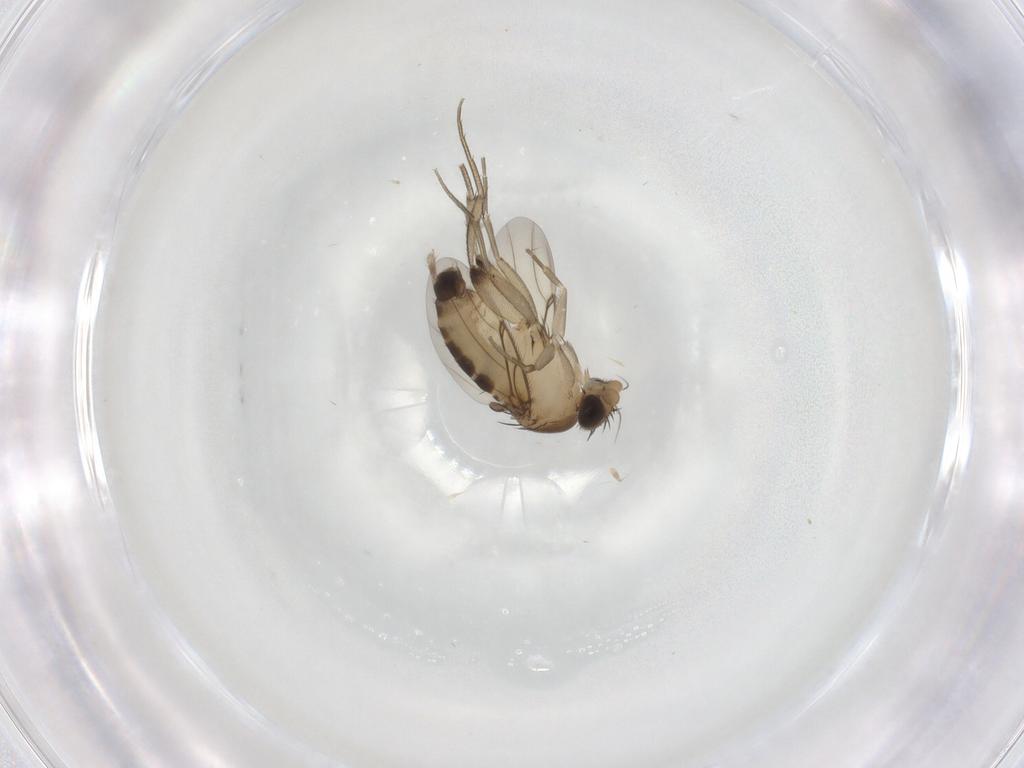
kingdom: Animalia
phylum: Arthropoda
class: Insecta
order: Diptera
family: Phoridae
